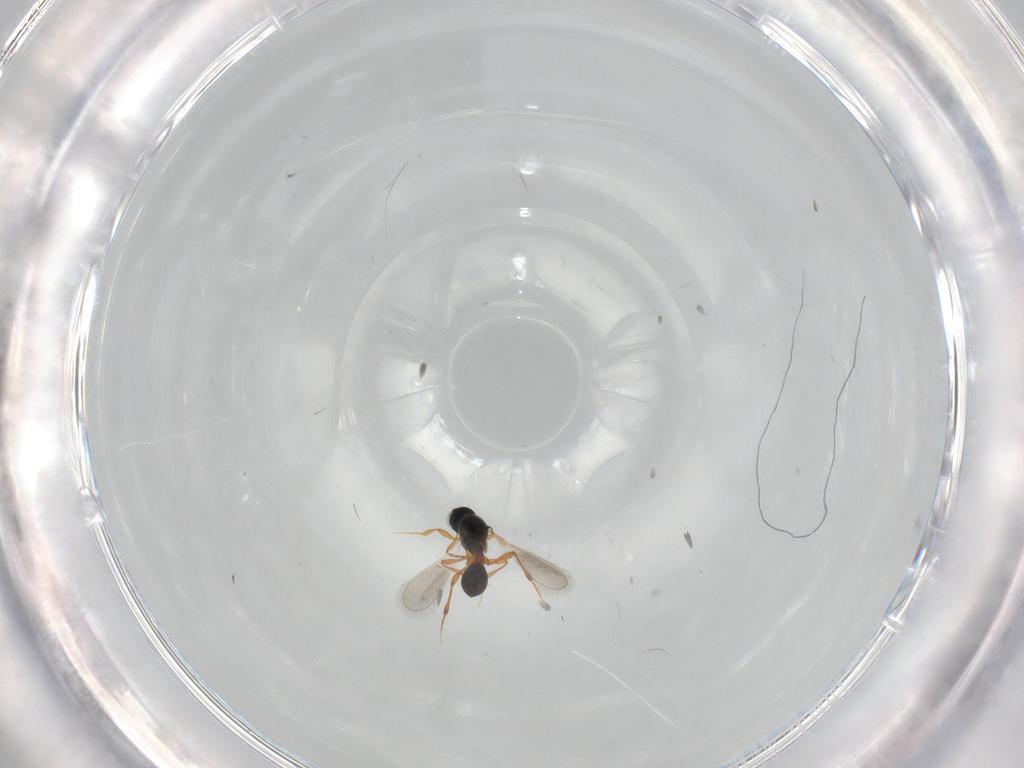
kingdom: Animalia
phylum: Arthropoda
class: Insecta
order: Hymenoptera
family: Platygastridae
